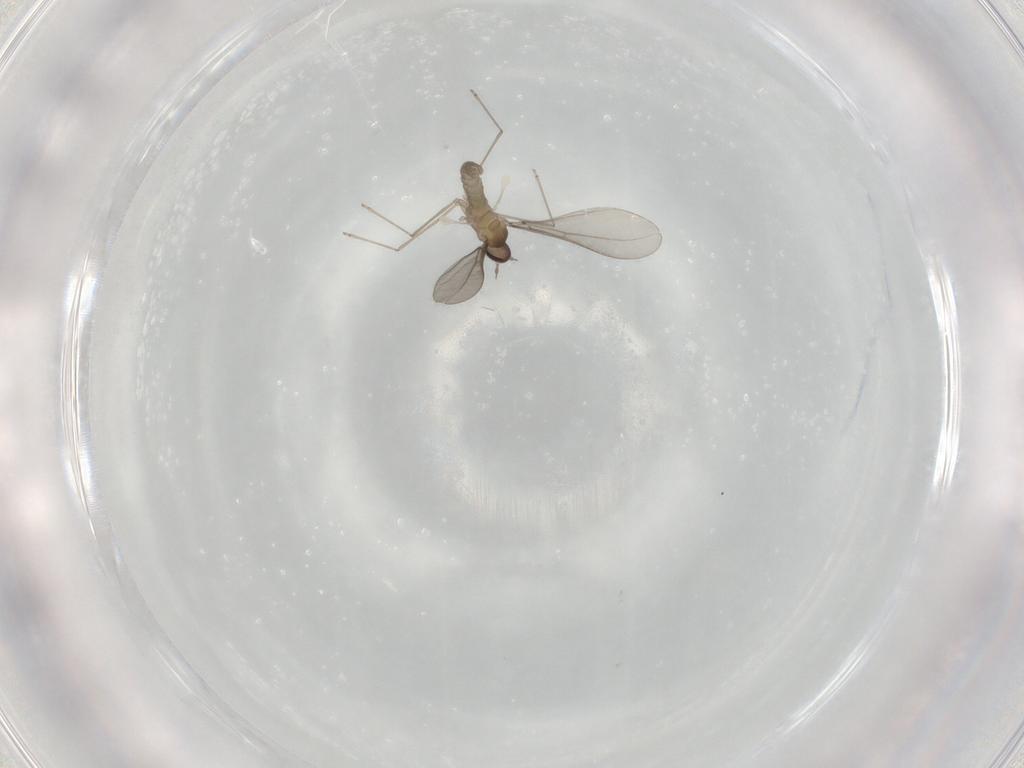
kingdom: Animalia
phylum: Arthropoda
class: Insecta
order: Diptera
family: Cecidomyiidae
